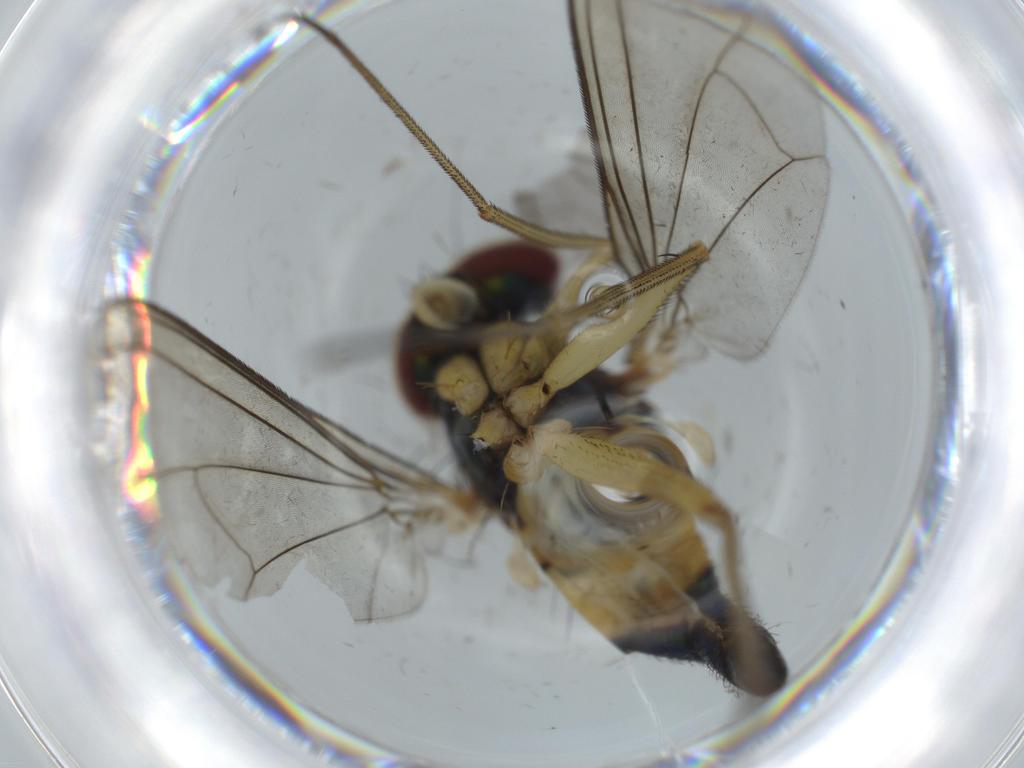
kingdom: Animalia
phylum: Arthropoda
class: Insecta
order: Diptera
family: Dolichopodidae
